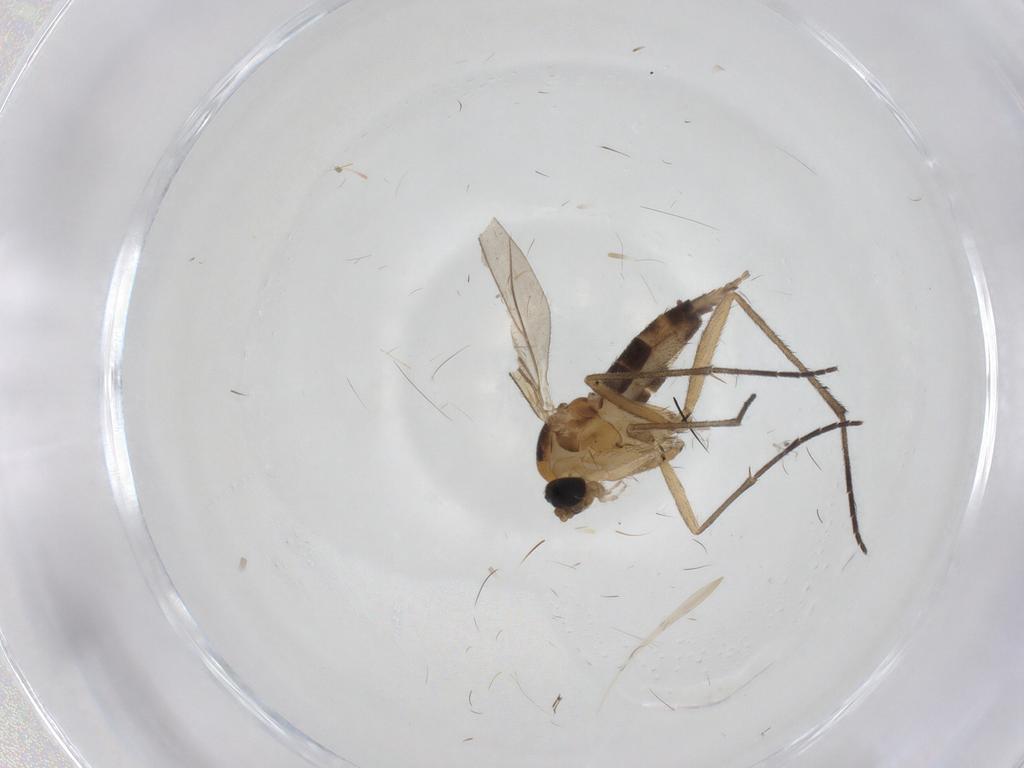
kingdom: Animalia
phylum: Arthropoda
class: Insecta
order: Diptera
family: Phoridae
